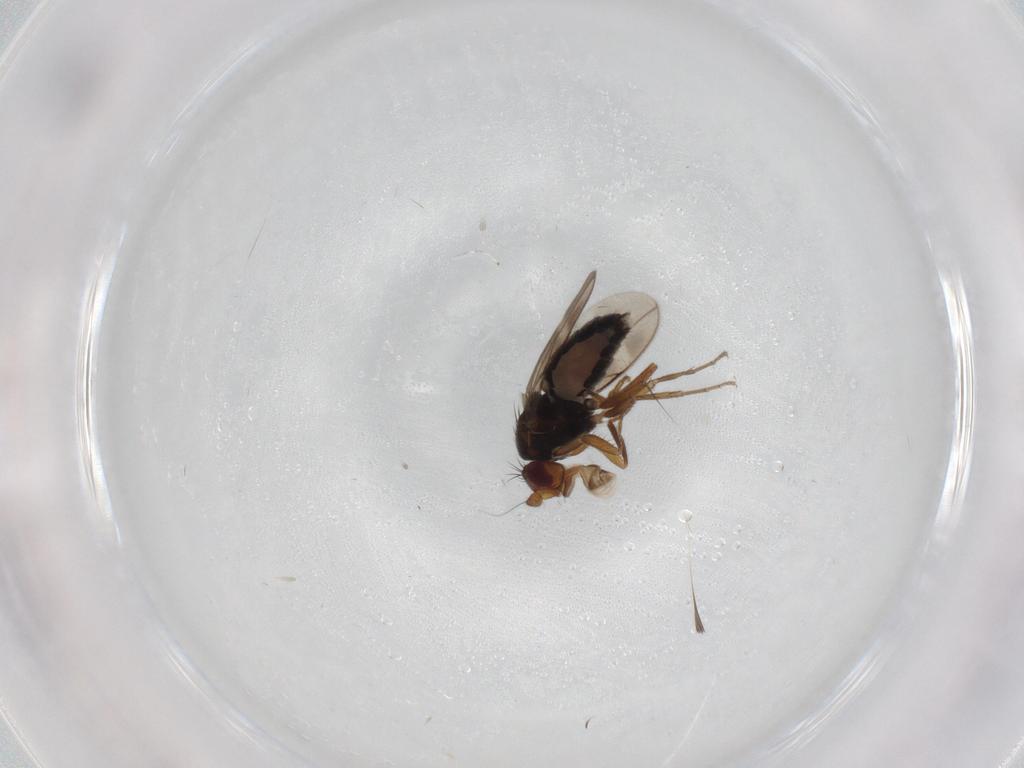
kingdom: Animalia
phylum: Arthropoda
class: Insecta
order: Diptera
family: Sphaeroceridae
